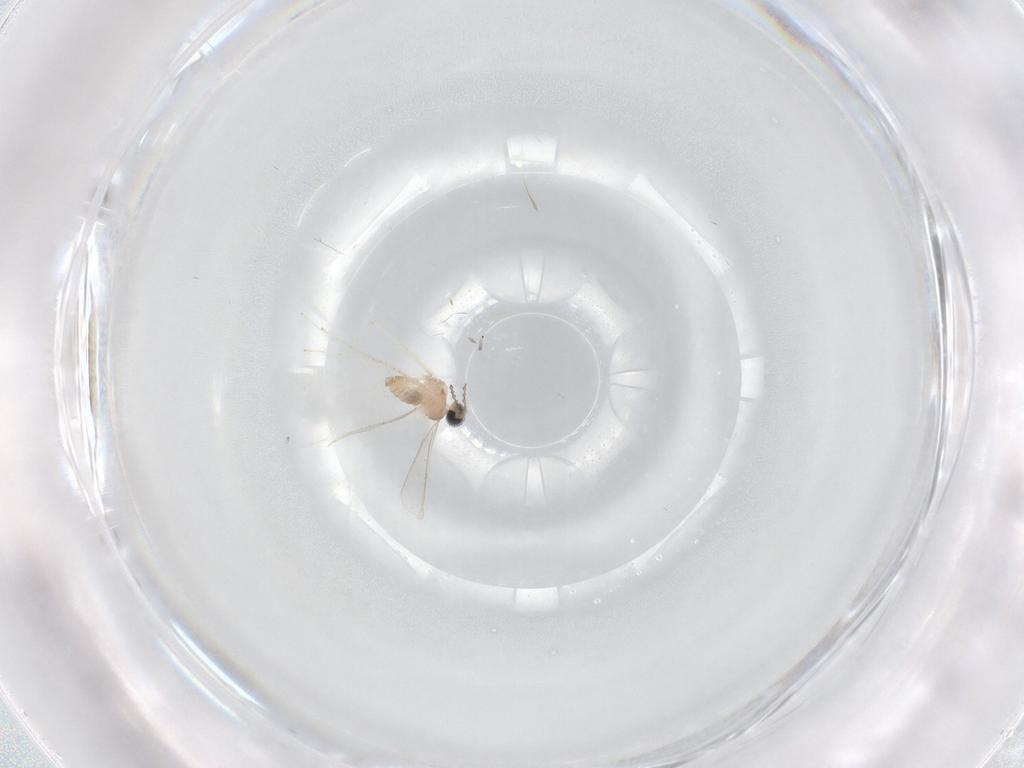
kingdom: Animalia
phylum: Arthropoda
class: Insecta
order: Diptera
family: Cecidomyiidae
